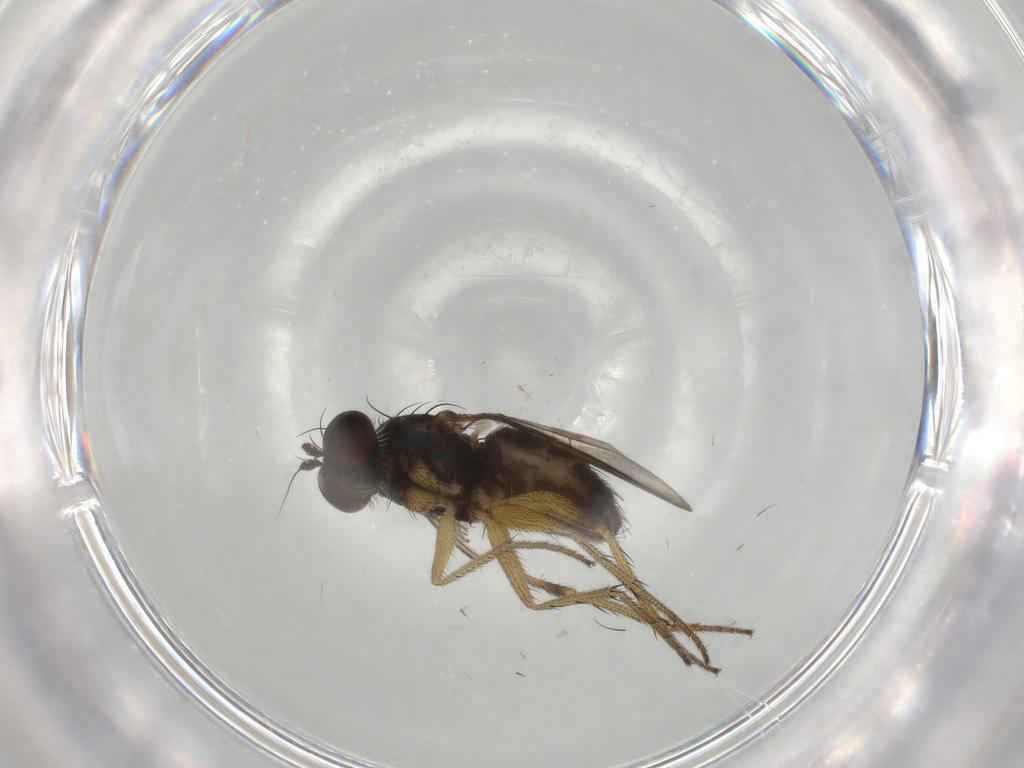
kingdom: Animalia
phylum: Arthropoda
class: Insecta
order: Diptera
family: Dolichopodidae
